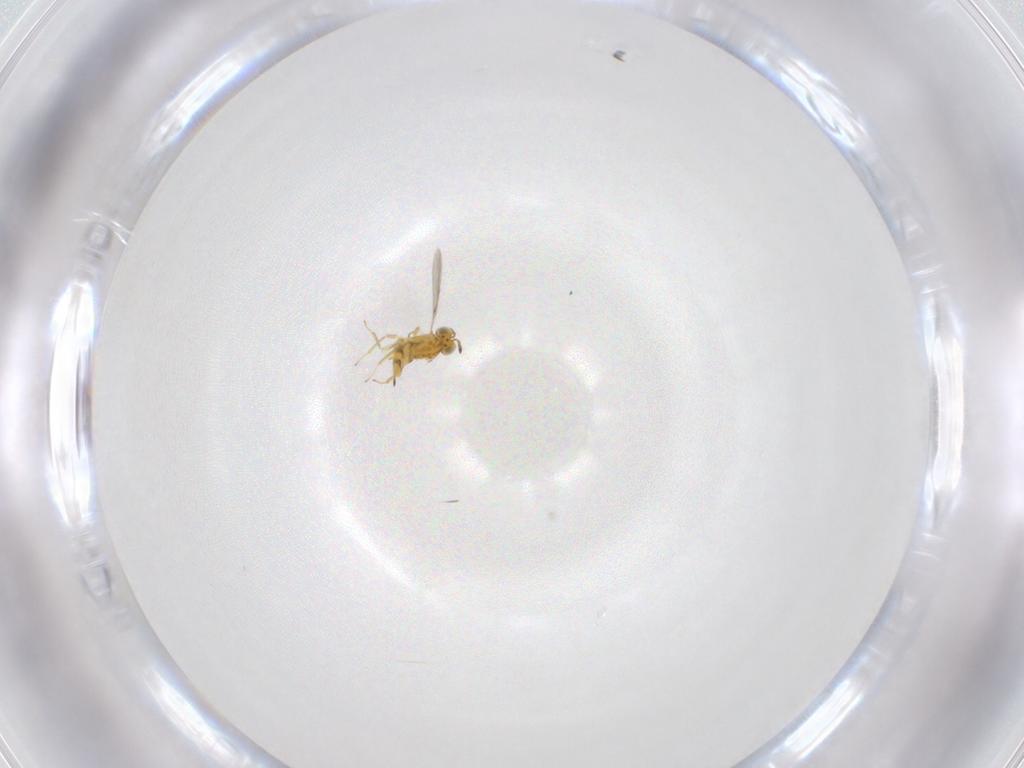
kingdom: Animalia
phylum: Arthropoda
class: Insecta
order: Hymenoptera
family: Aphelinidae
